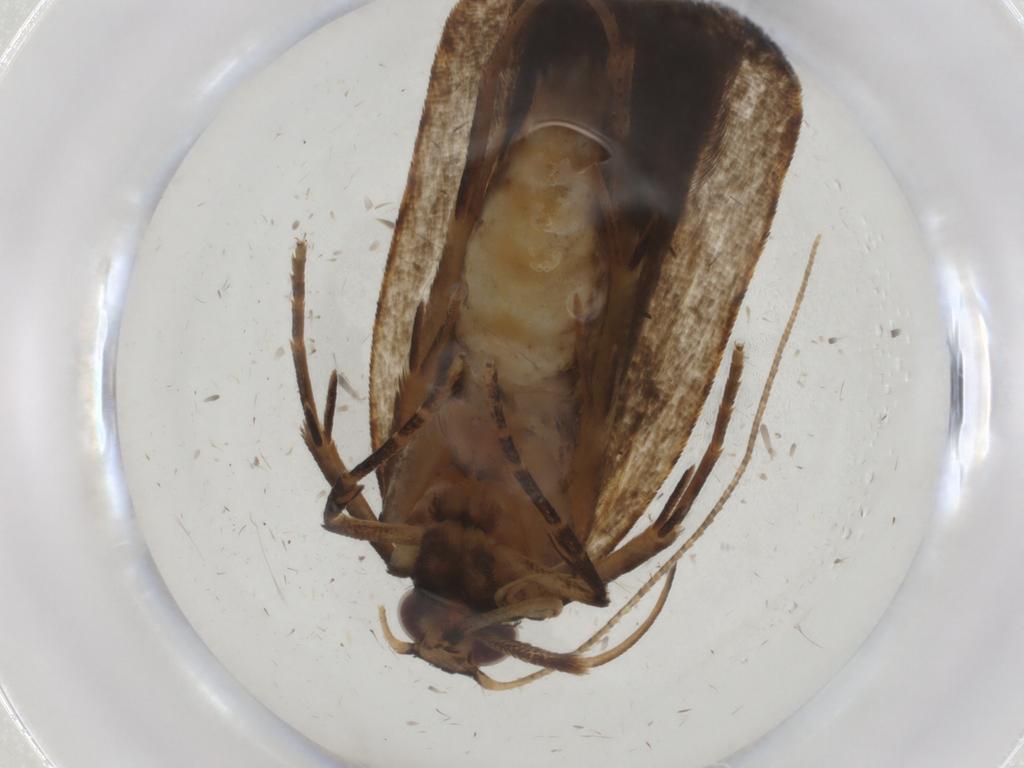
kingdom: Animalia
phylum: Arthropoda
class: Insecta
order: Lepidoptera
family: Gelechiidae
